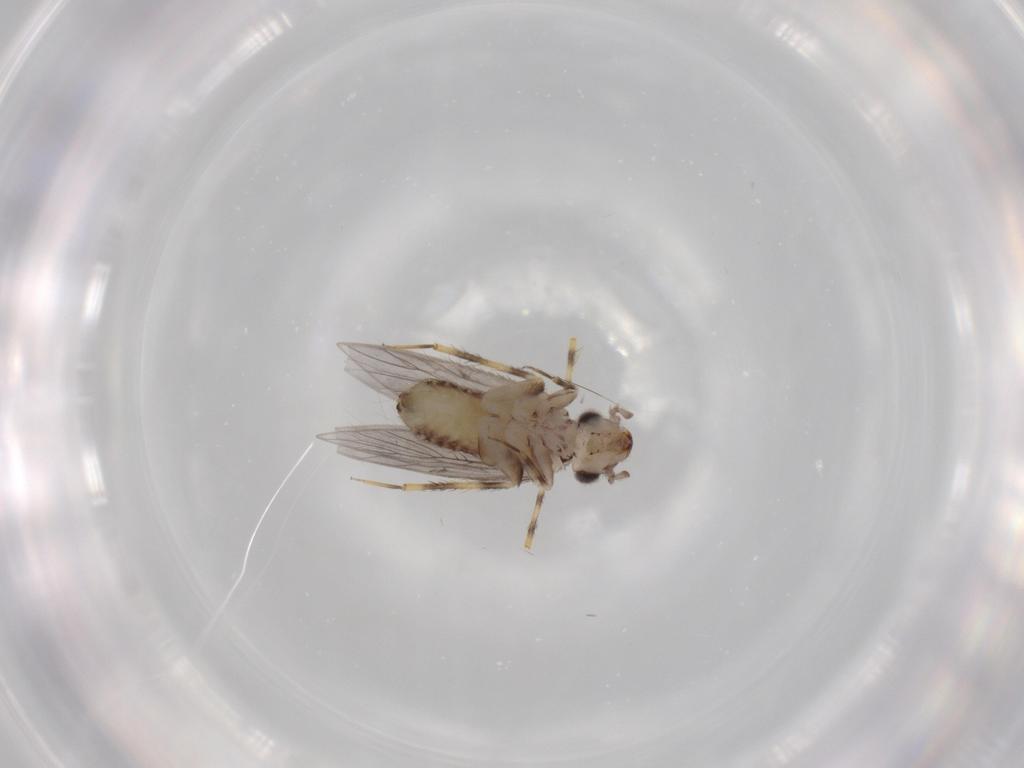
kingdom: Animalia
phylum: Arthropoda
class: Insecta
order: Psocodea
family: Lepidopsocidae
